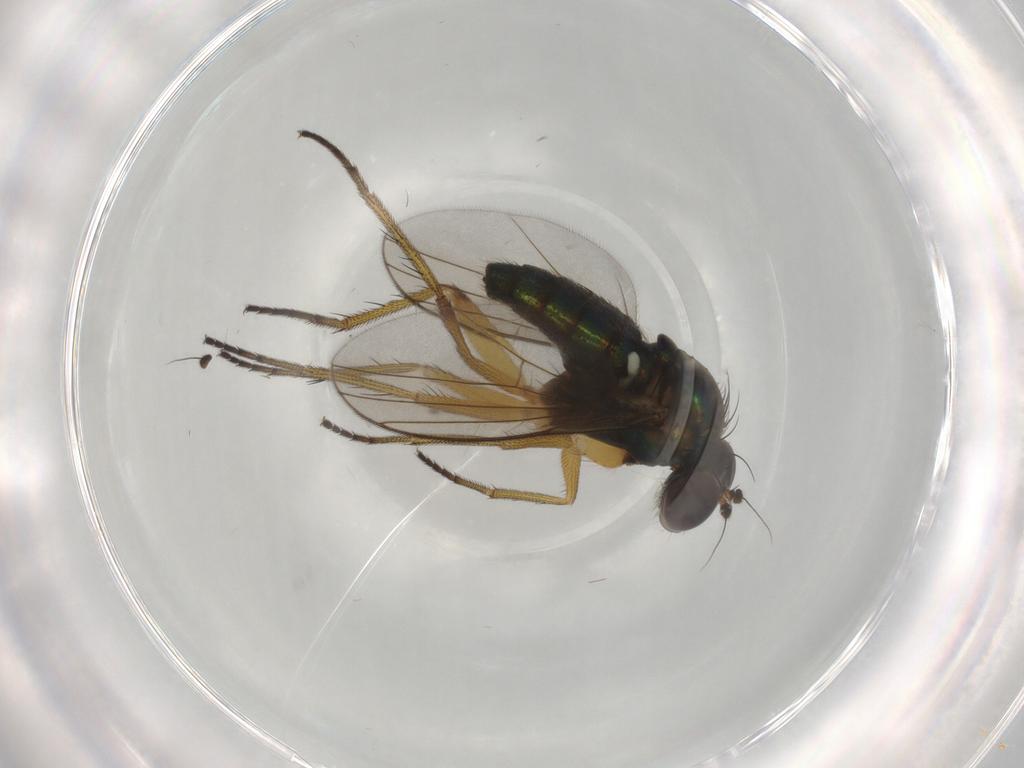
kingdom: Animalia
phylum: Arthropoda
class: Insecta
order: Diptera
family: Dolichopodidae
